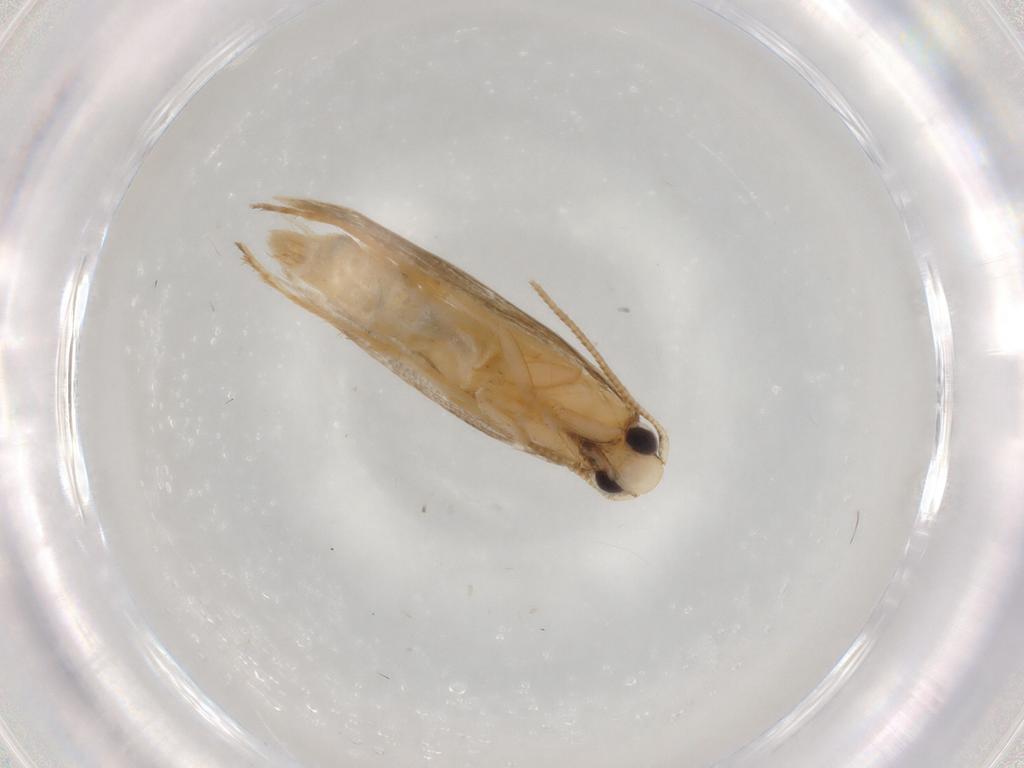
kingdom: Animalia
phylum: Arthropoda
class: Insecta
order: Lepidoptera
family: Tineidae
